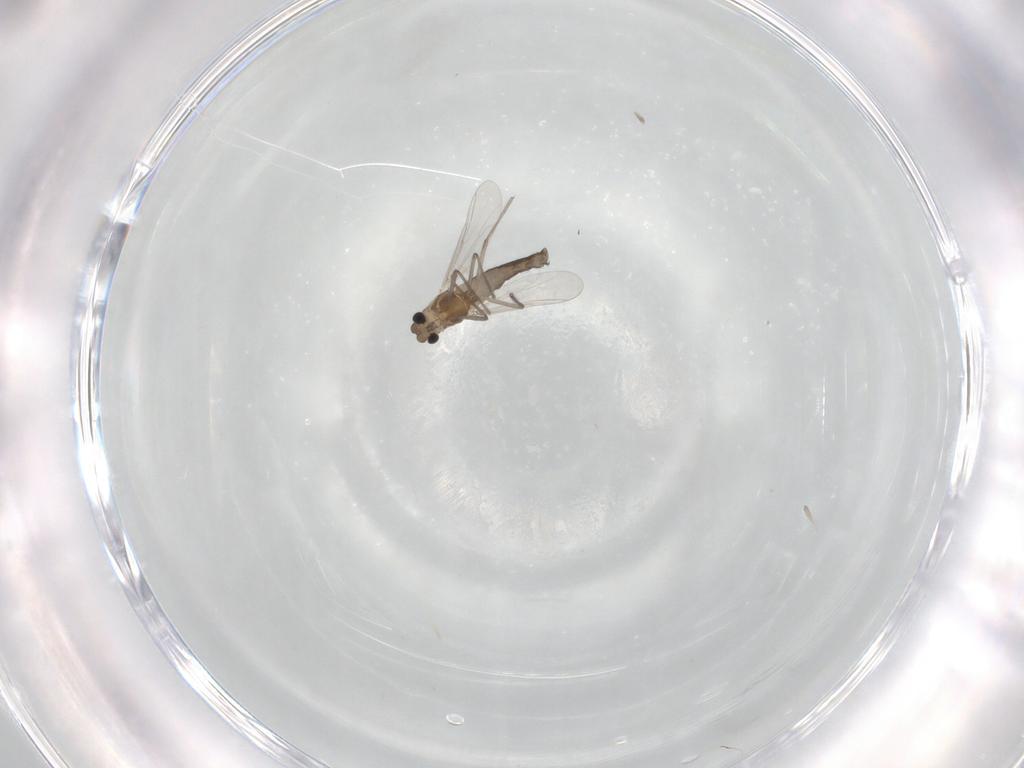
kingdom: Animalia
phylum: Arthropoda
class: Insecta
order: Diptera
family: Chironomidae
